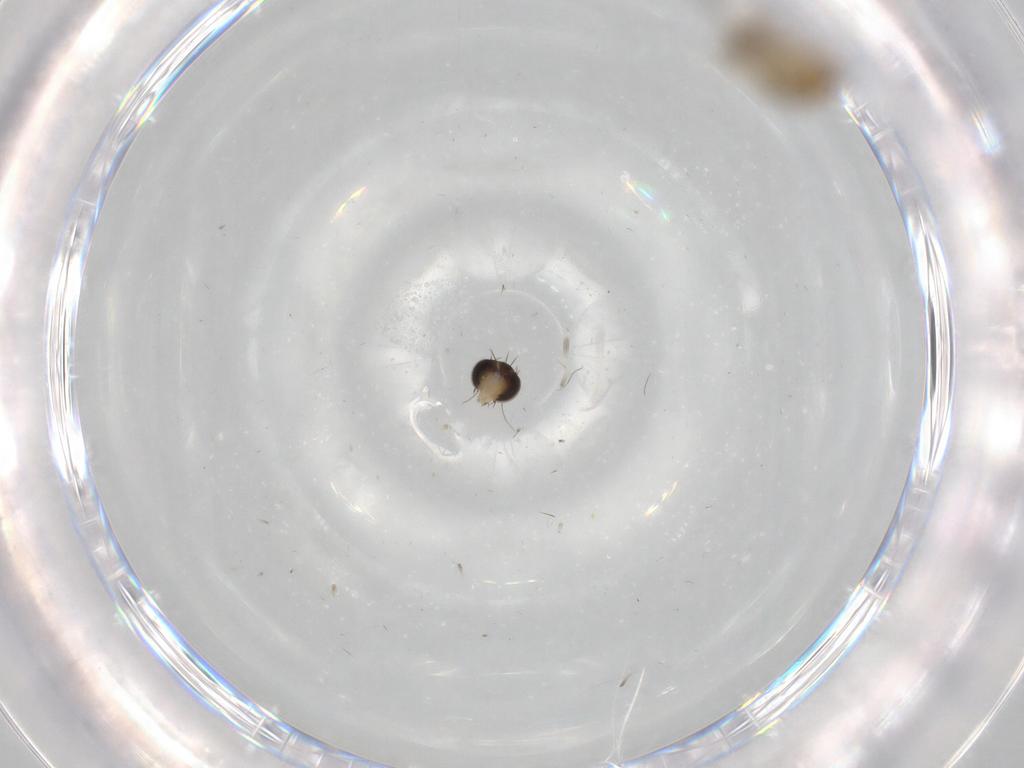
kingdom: Animalia
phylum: Arthropoda
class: Insecta
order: Diptera
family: Phoridae
